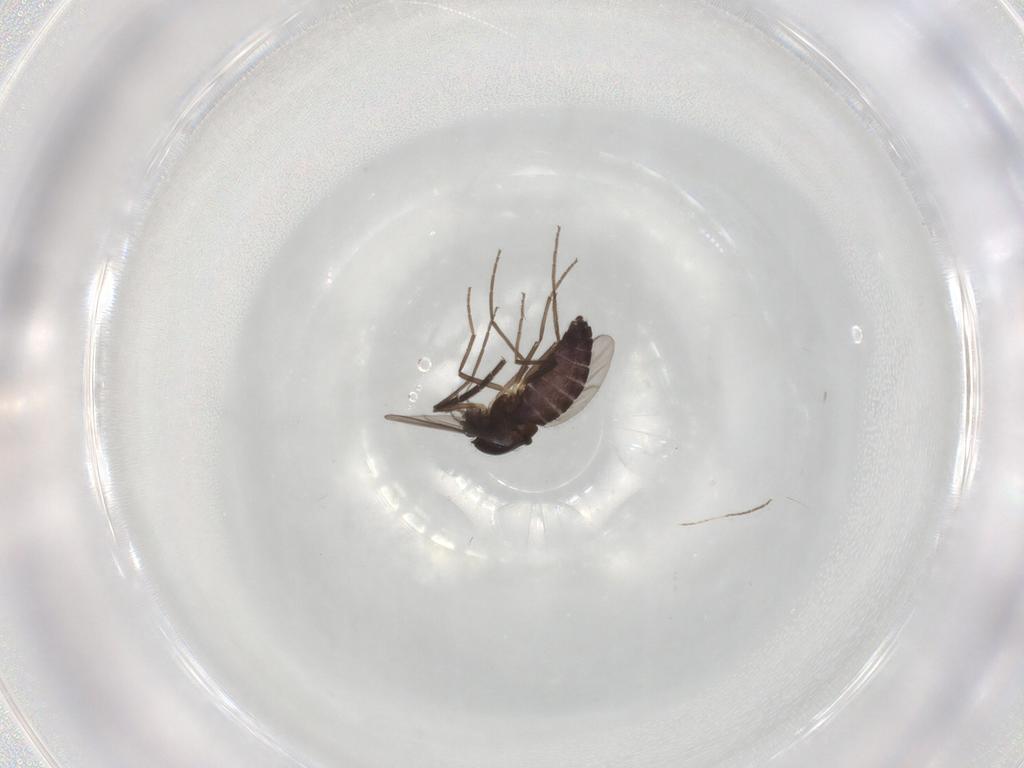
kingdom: Animalia
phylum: Arthropoda
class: Insecta
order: Diptera
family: Chironomidae
